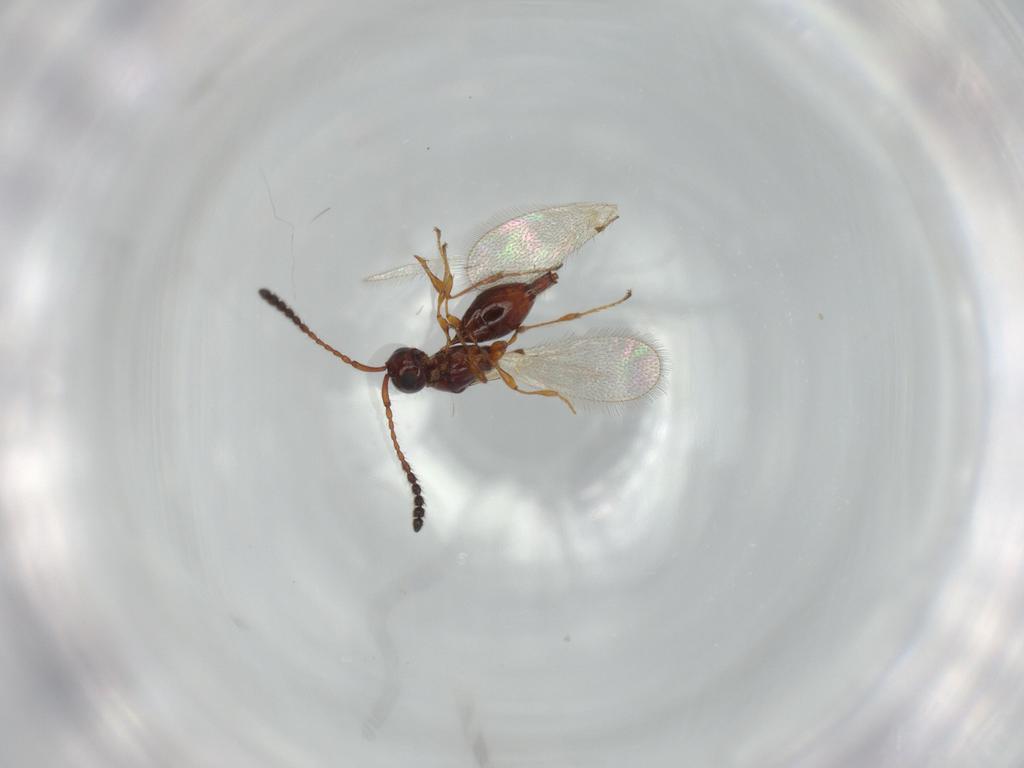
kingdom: Animalia
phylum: Arthropoda
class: Insecta
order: Hymenoptera
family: Diapriidae
